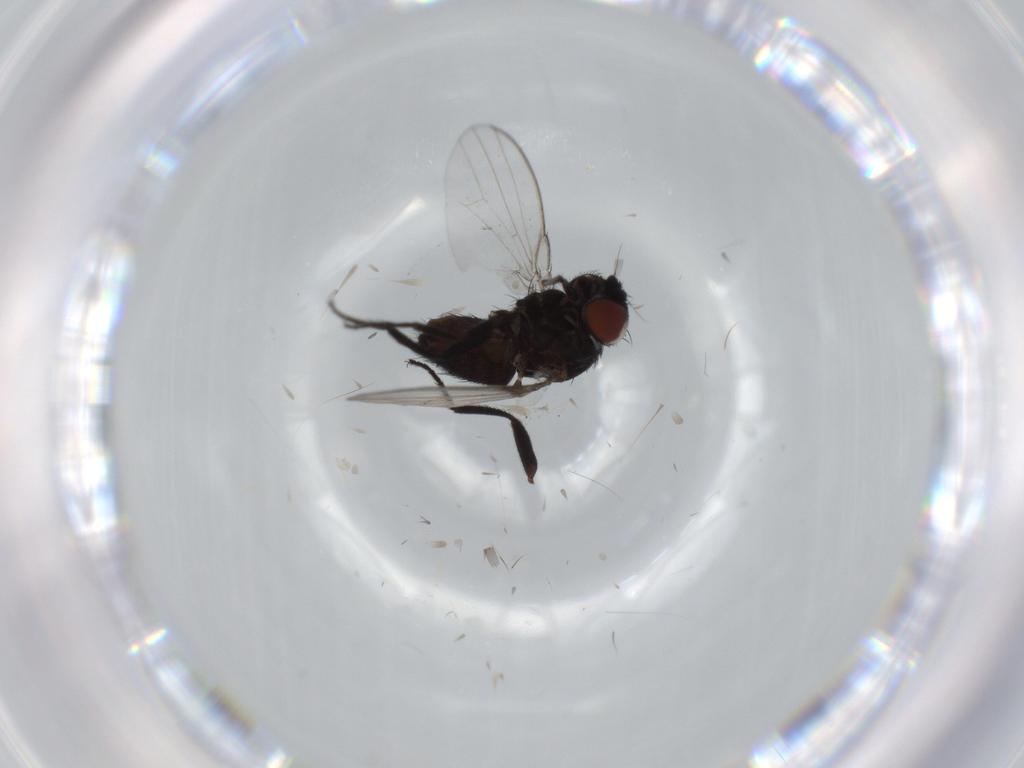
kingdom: Animalia
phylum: Arthropoda
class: Insecta
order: Diptera
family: Milichiidae
